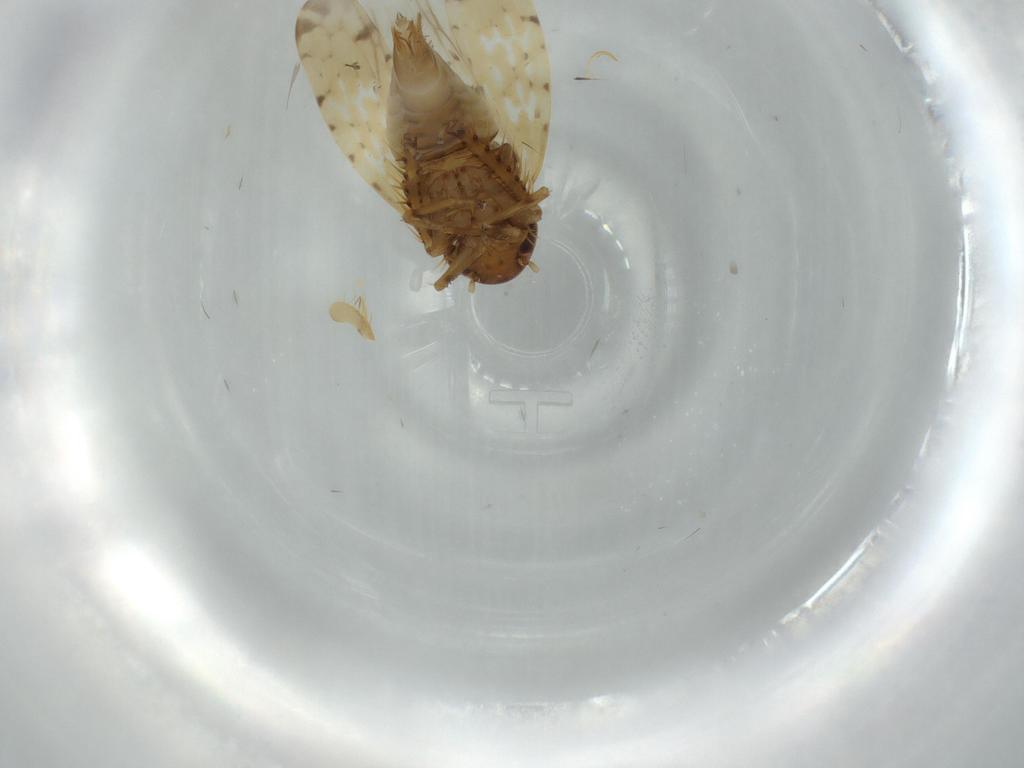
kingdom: Animalia
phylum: Arthropoda
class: Insecta
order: Hemiptera
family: Cicadellidae
